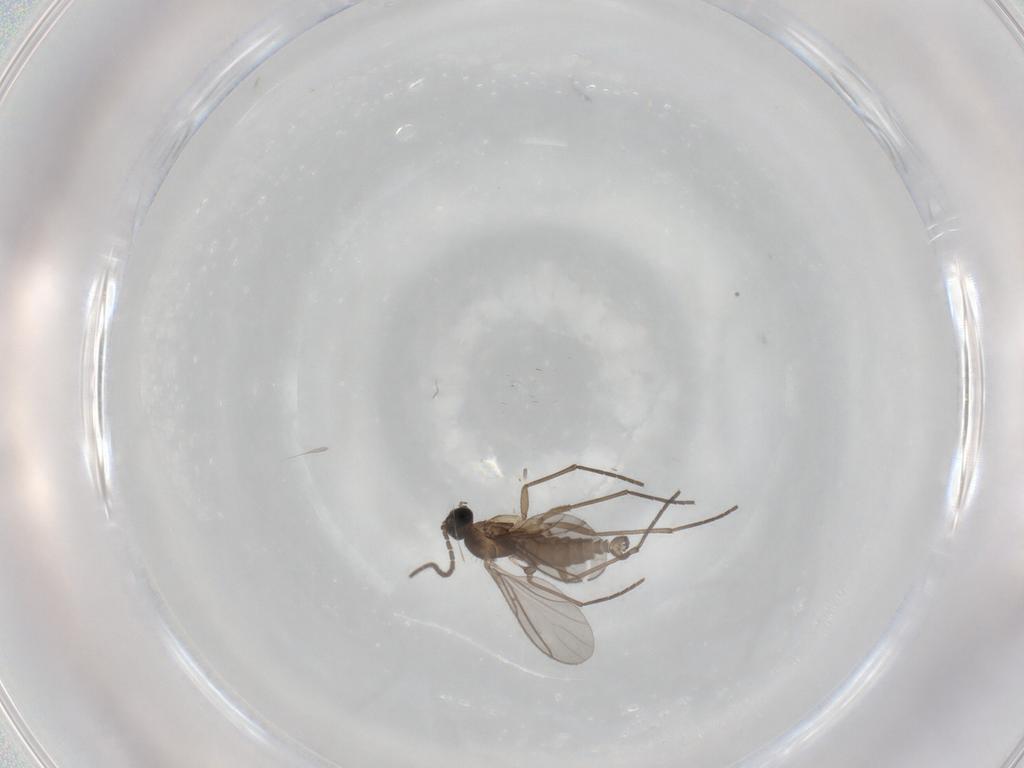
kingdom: Animalia
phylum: Arthropoda
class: Insecta
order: Diptera
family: Sciaridae
